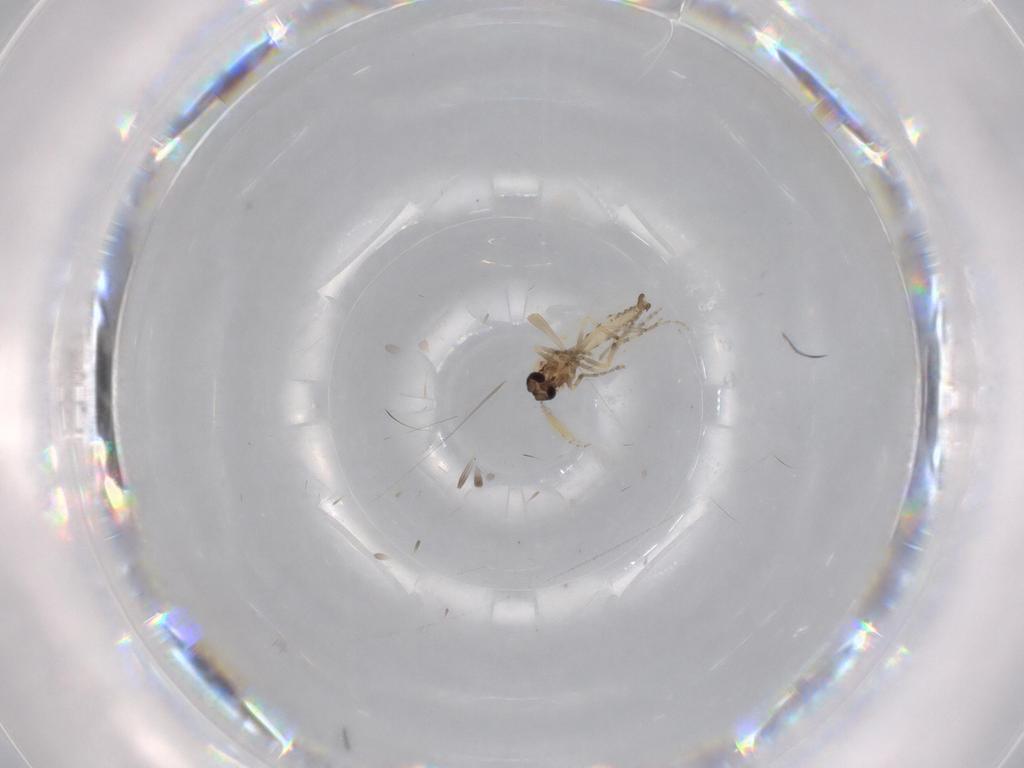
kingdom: Animalia
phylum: Arthropoda
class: Insecta
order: Diptera
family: Ceratopogonidae
